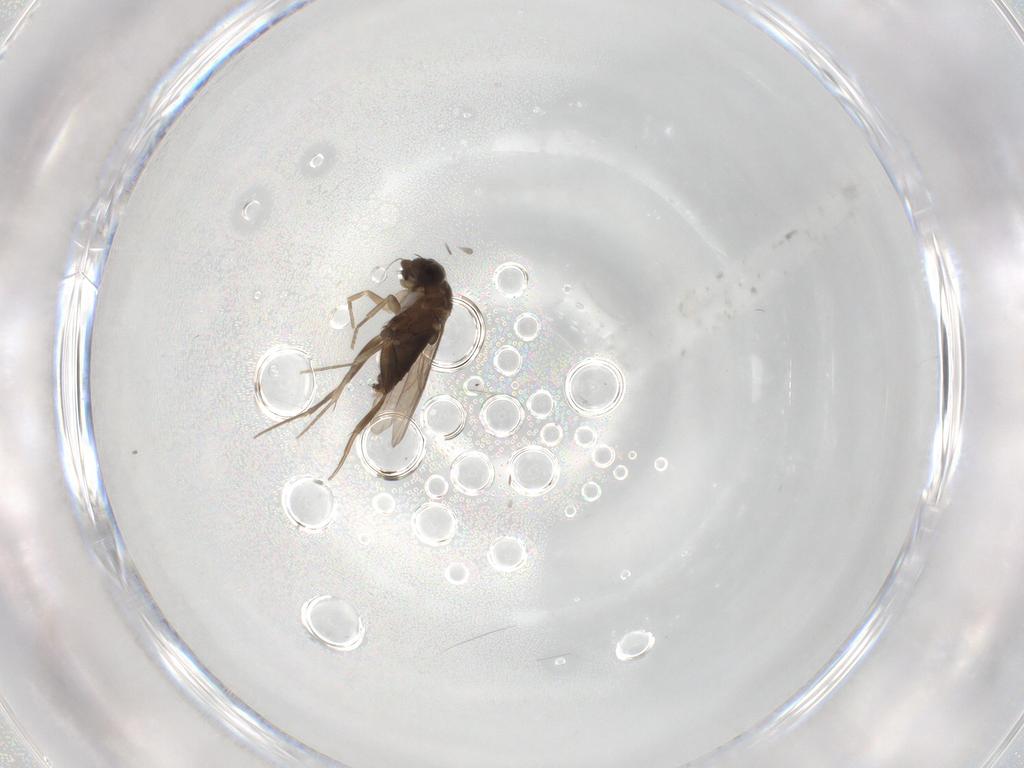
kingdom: Animalia
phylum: Arthropoda
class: Insecta
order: Diptera
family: Phoridae
